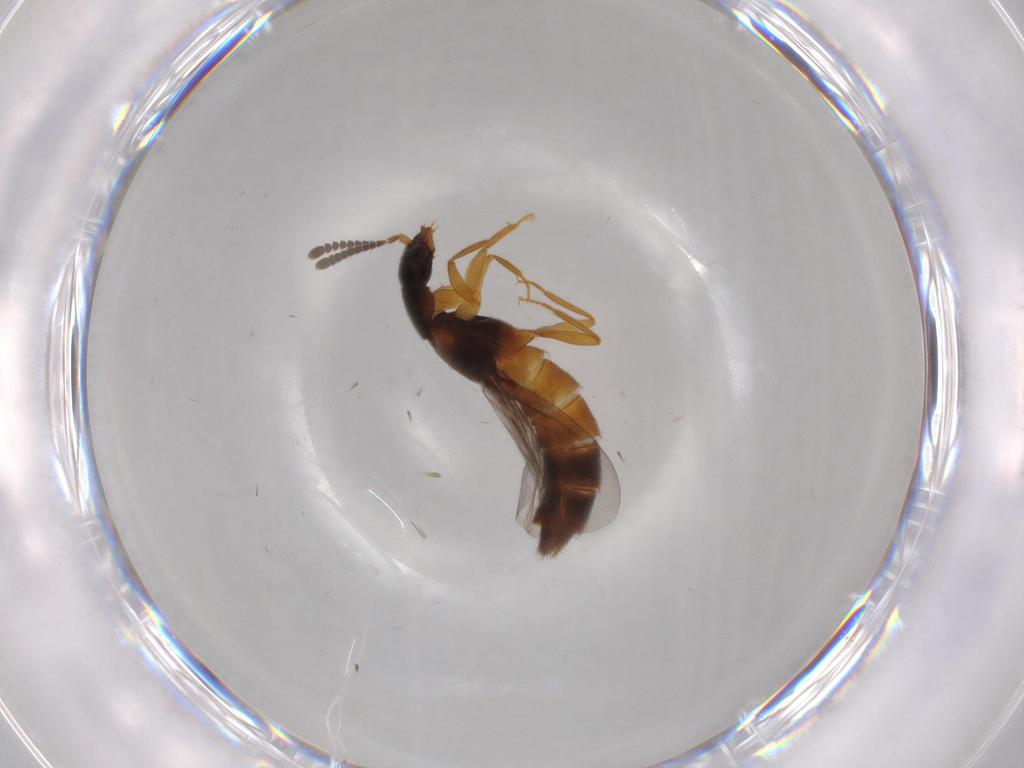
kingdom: Animalia
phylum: Arthropoda
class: Insecta
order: Coleoptera
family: Staphylinidae
